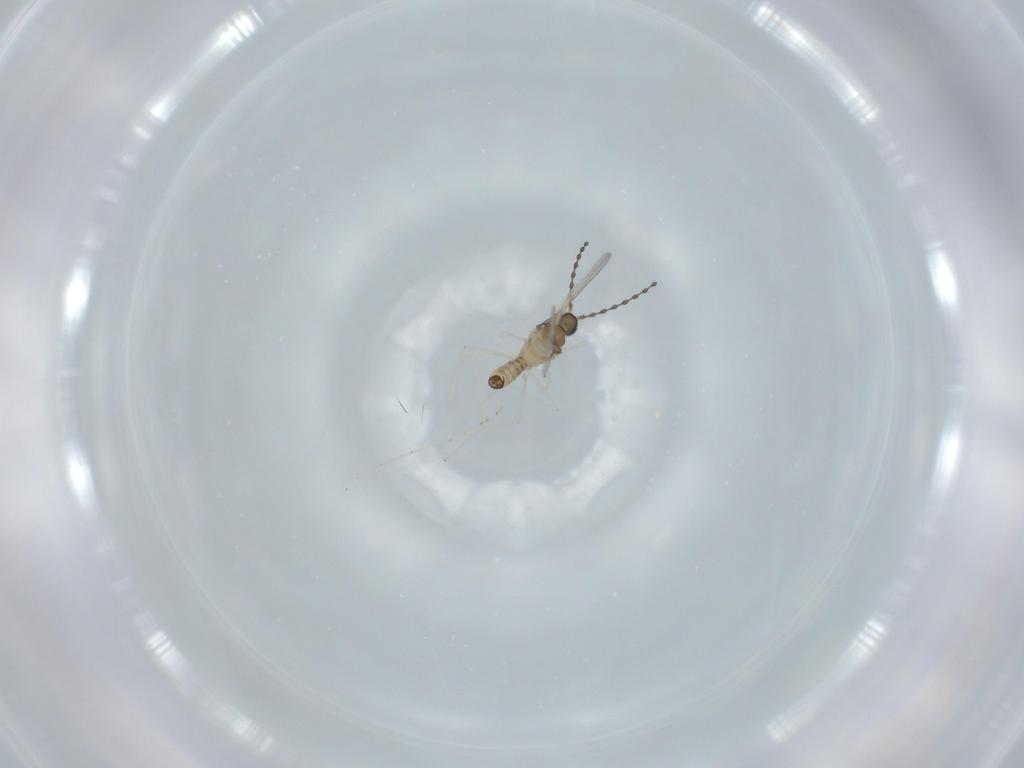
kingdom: Animalia
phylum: Arthropoda
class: Insecta
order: Diptera
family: Cecidomyiidae
